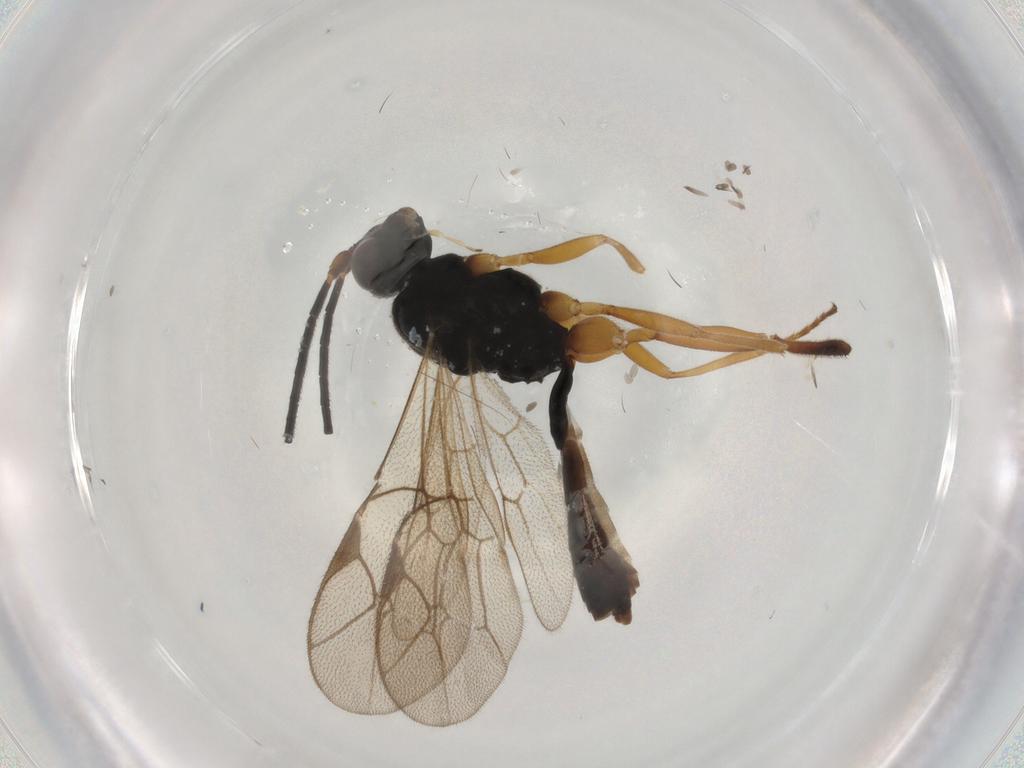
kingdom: Animalia
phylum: Arthropoda
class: Insecta
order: Hymenoptera
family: Ichneumonidae
